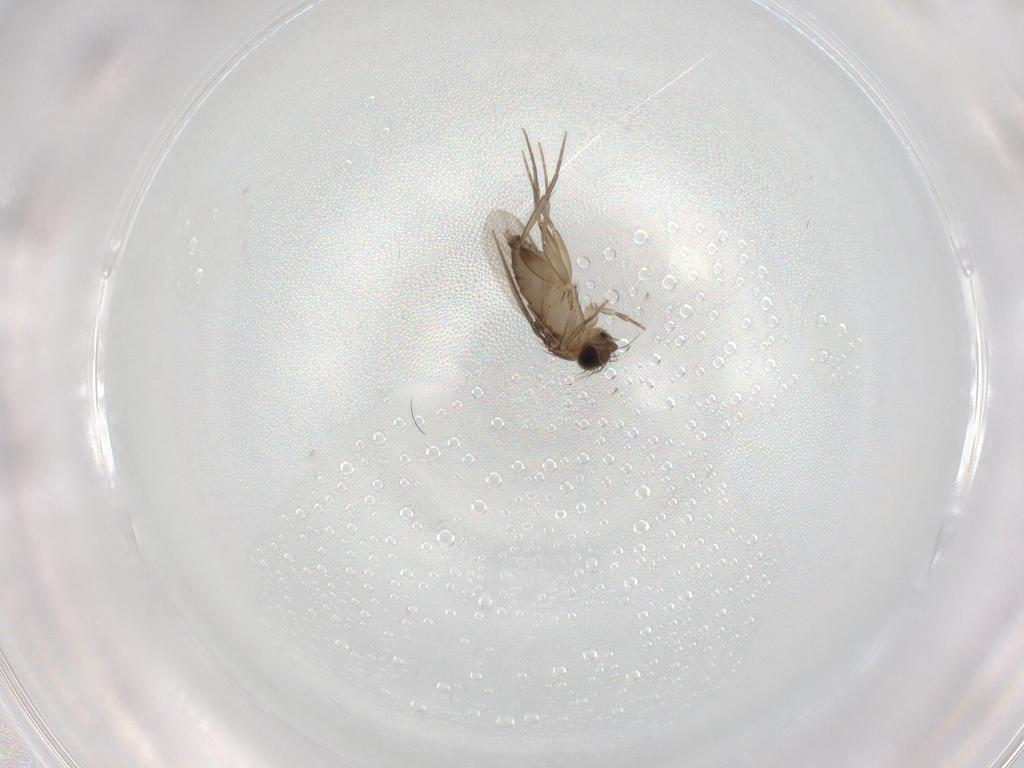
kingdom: Animalia
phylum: Arthropoda
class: Insecta
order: Diptera
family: Phoridae
